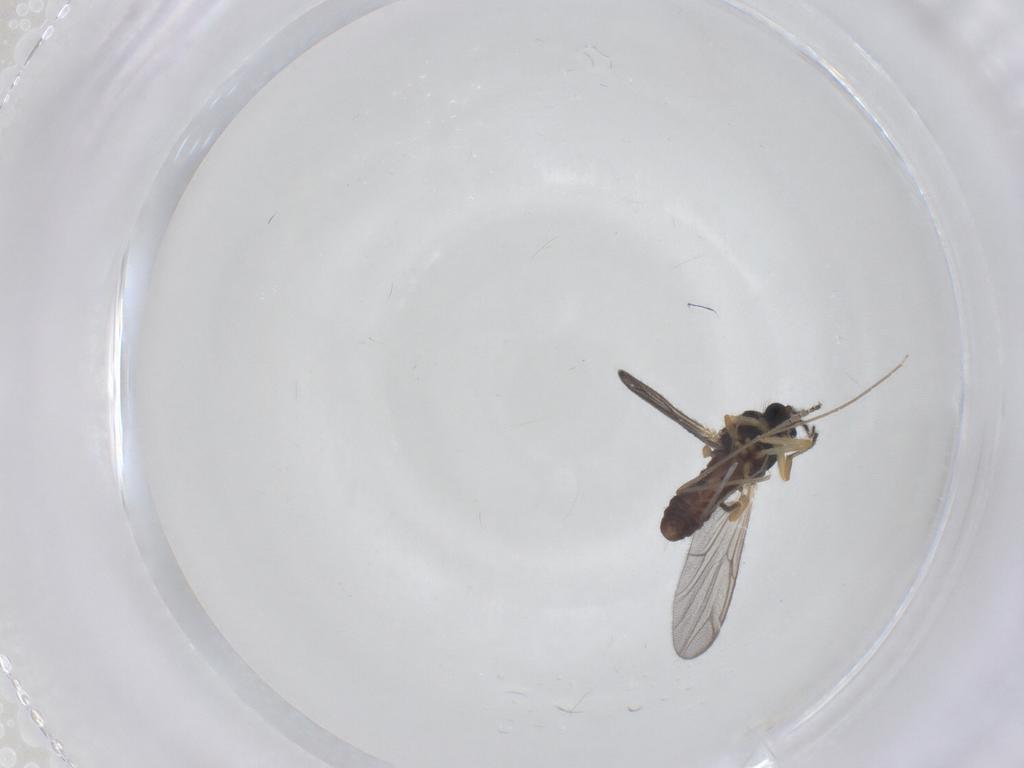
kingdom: Animalia
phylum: Arthropoda
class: Insecta
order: Diptera
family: Ceratopogonidae
